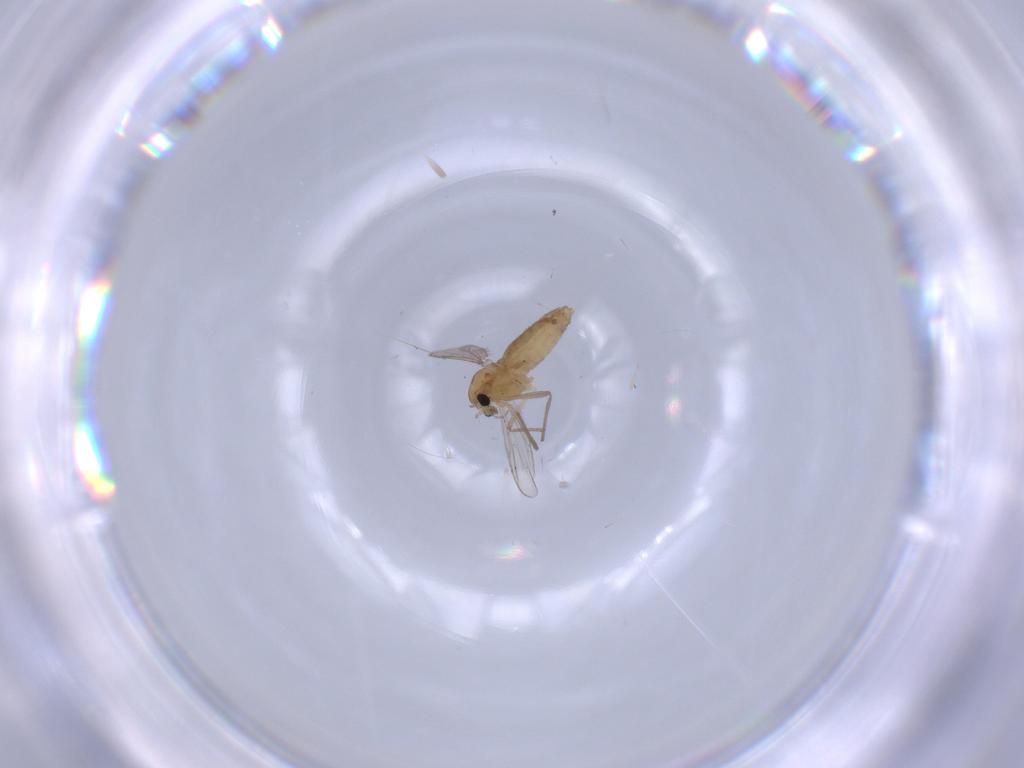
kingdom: Animalia
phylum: Arthropoda
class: Insecta
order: Diptera
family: Chironomidae
